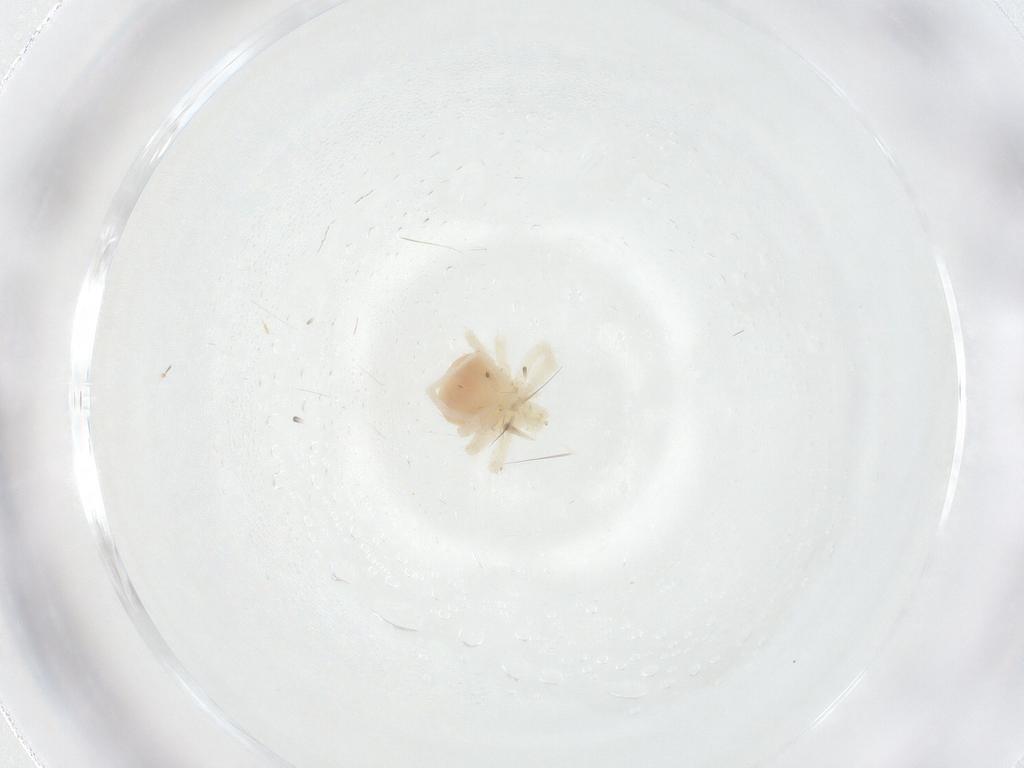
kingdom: Animalia
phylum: Arthropoda
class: Arachnida
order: Trombidiformes
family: Anystidae
